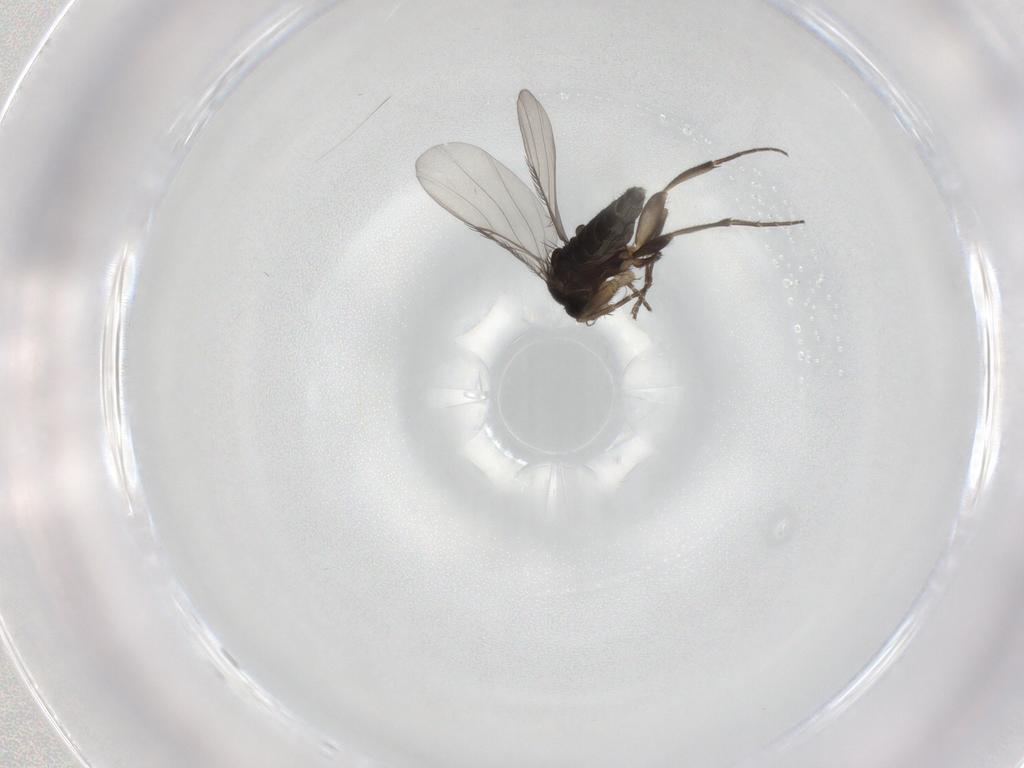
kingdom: Animalia
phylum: Arthropoda
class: Insecta
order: Diptera
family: Phoridae
